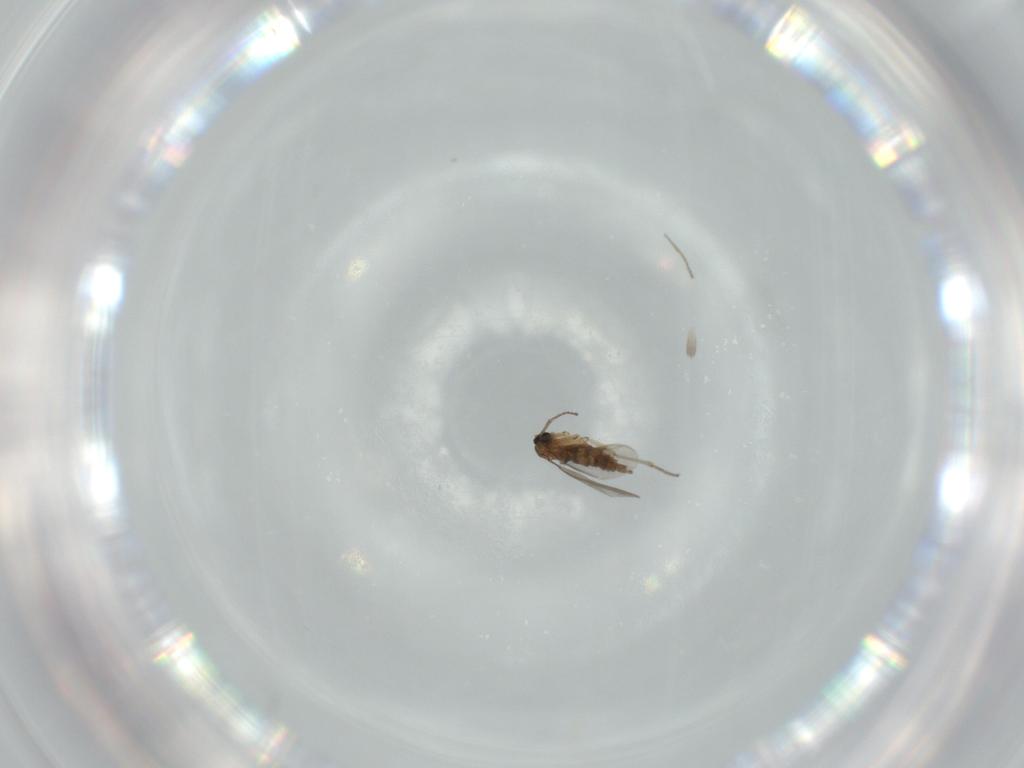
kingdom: Animalia
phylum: Arthropoda
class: Insecta
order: Diptera
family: Sciaridae
